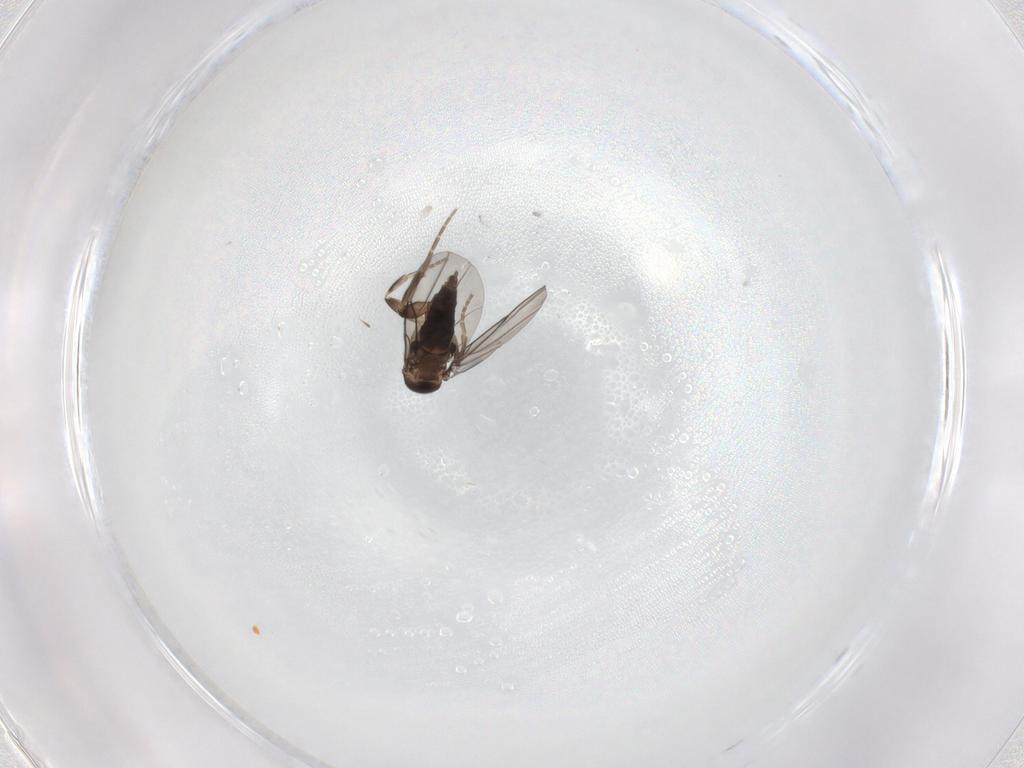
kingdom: Animalia
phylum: Arthropoda
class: Insecta
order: Diptera
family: Phoridae
